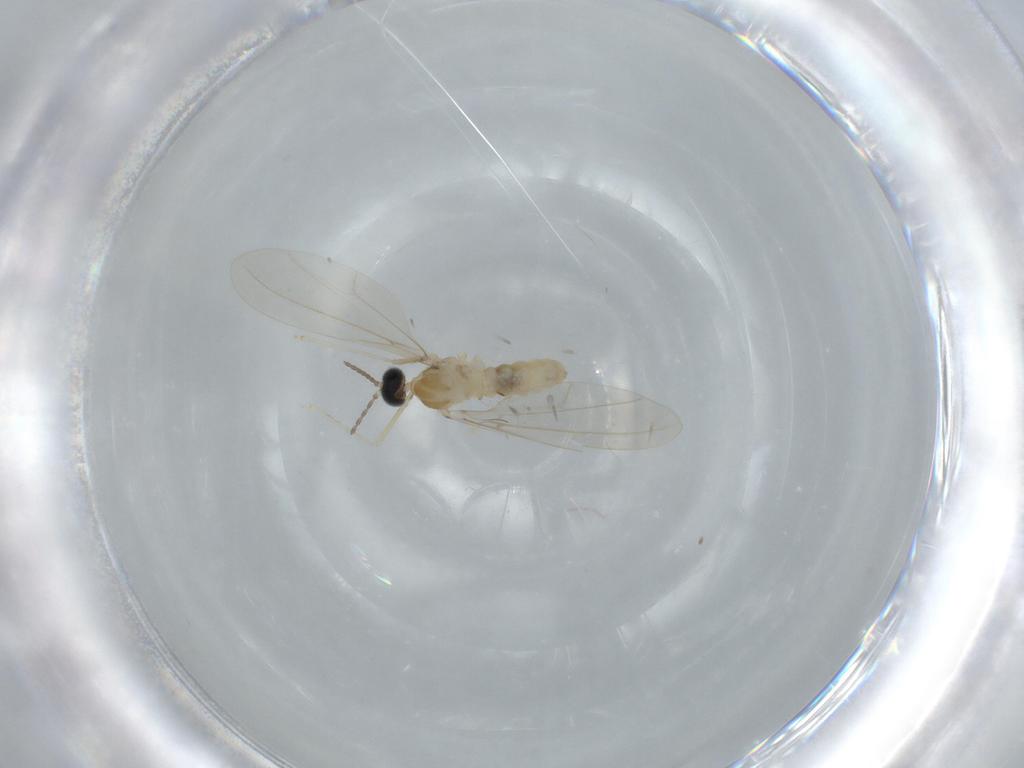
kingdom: Animalia
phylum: Arthropoda
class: Insecta
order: Diptera
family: Cecidomyiidae
